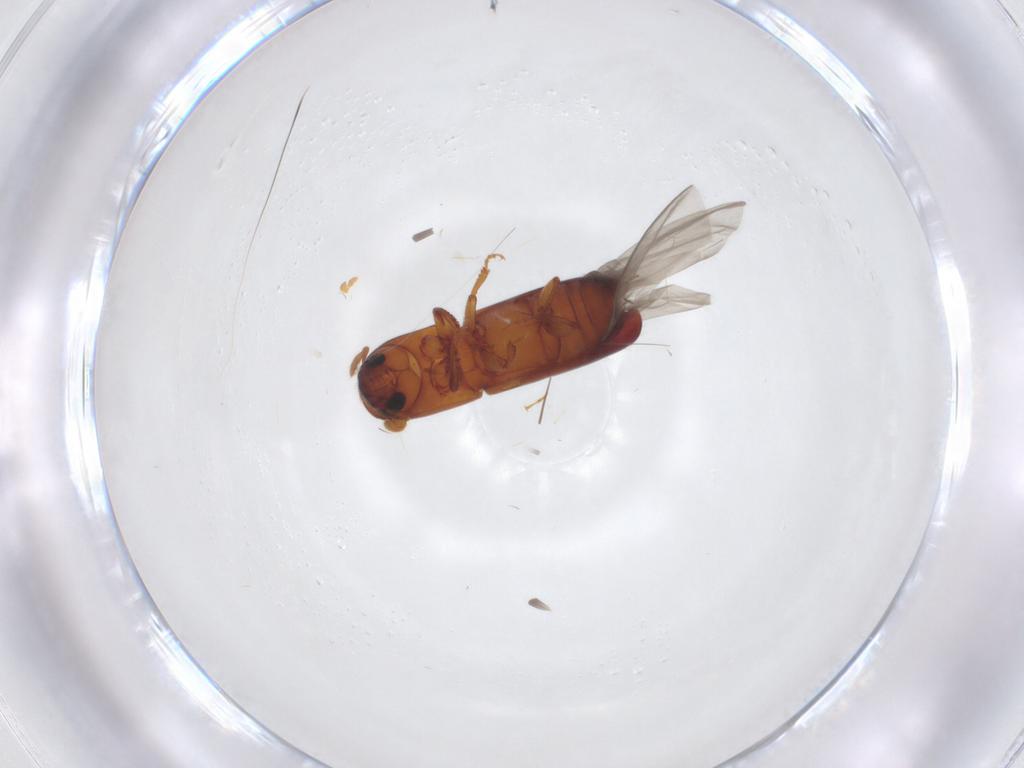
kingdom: Animalia
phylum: Arthropoda
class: Insecta
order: Coleoptera
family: Curculionidae
